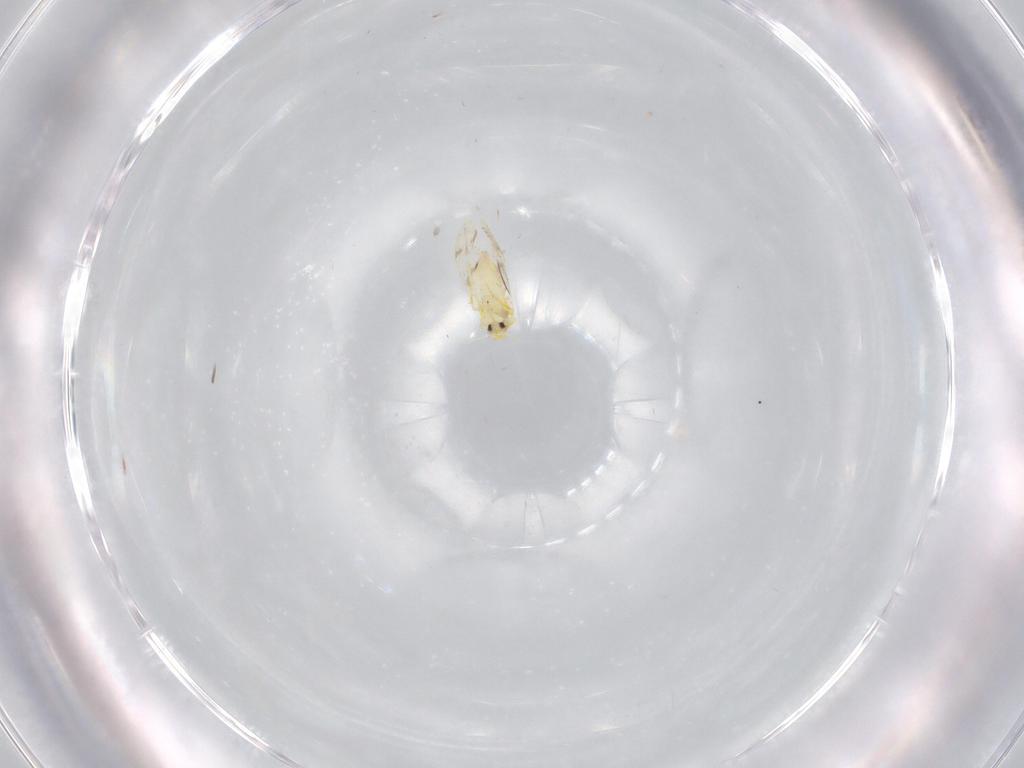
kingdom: Animalia
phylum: Arthropoda
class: Insecta
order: Hemiptera
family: Aleyrodidae
